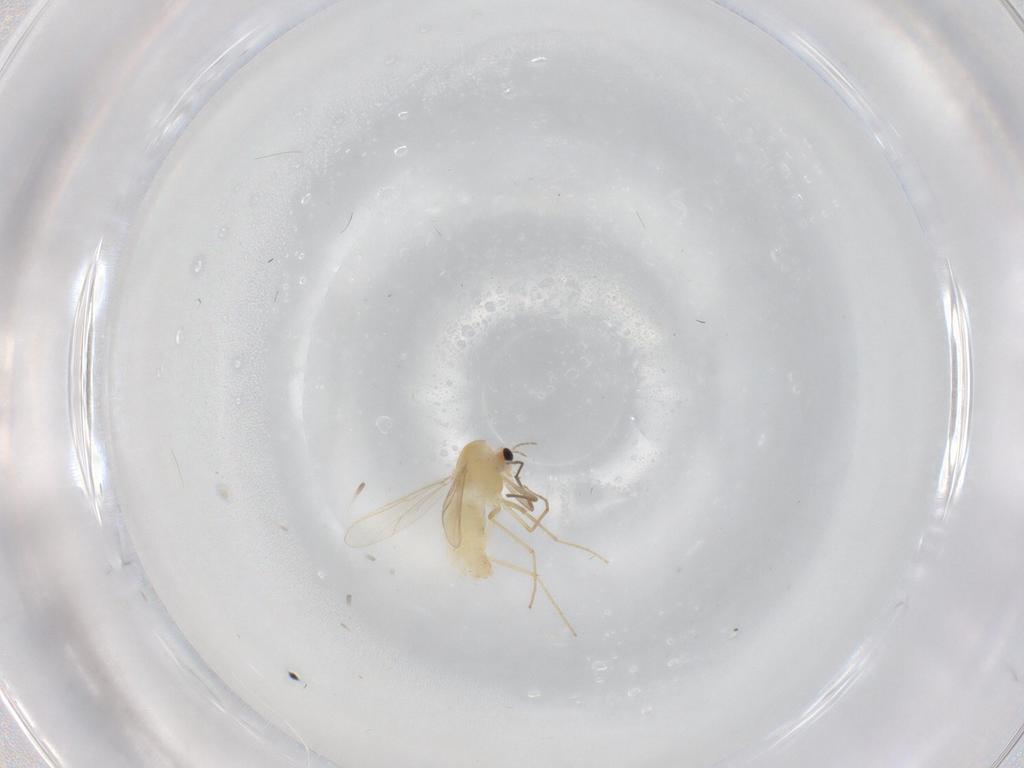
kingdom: Animalia
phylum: Arthropoda
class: Insecta
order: Diptera
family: Chironomidae
